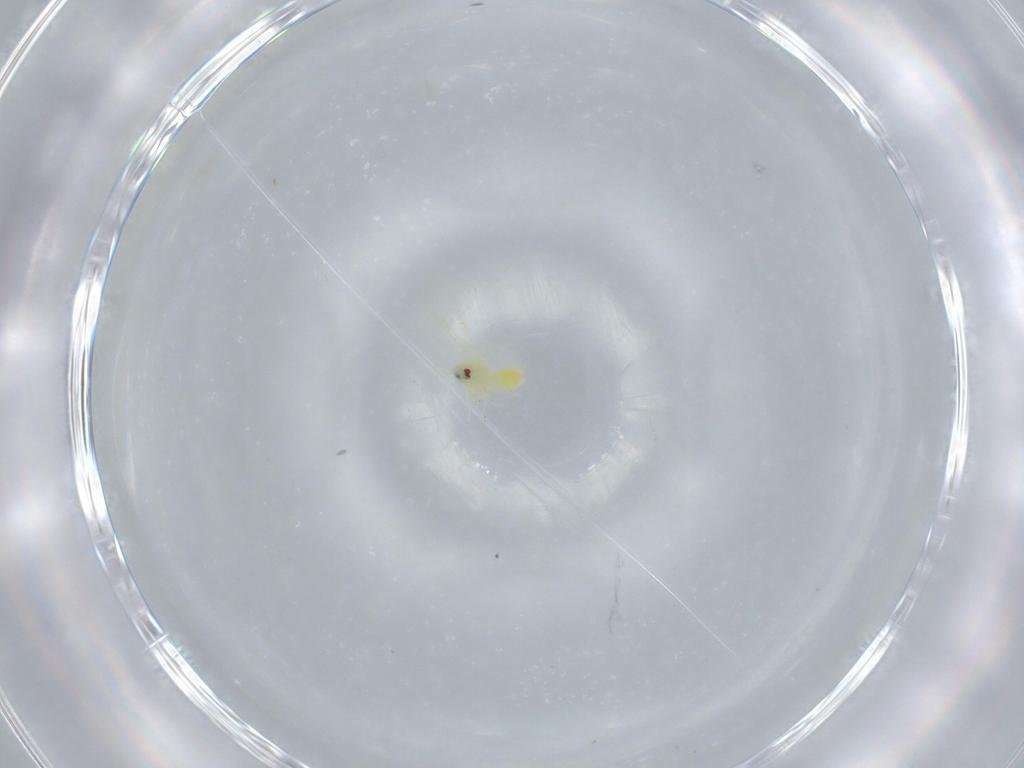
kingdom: Animalia
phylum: Arthropoda
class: Insecta
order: Hemiptera
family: Aleyrodidae
